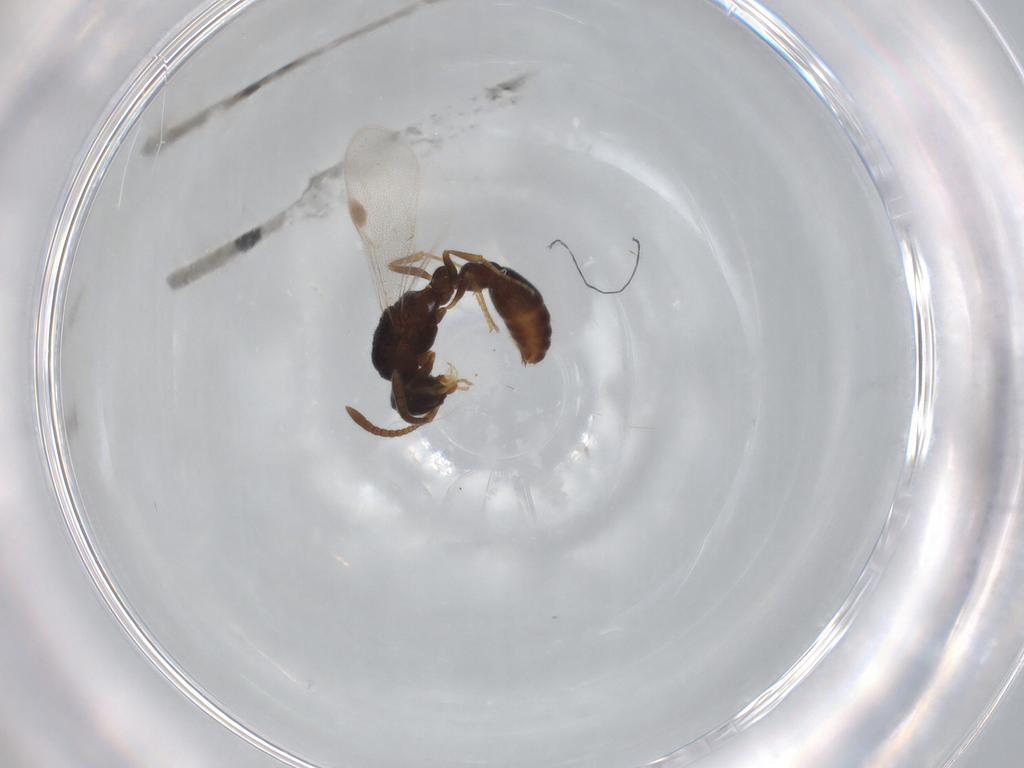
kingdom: Animalia
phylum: Arthropoda
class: Insecta
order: Hymenoptera
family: Formicidae
